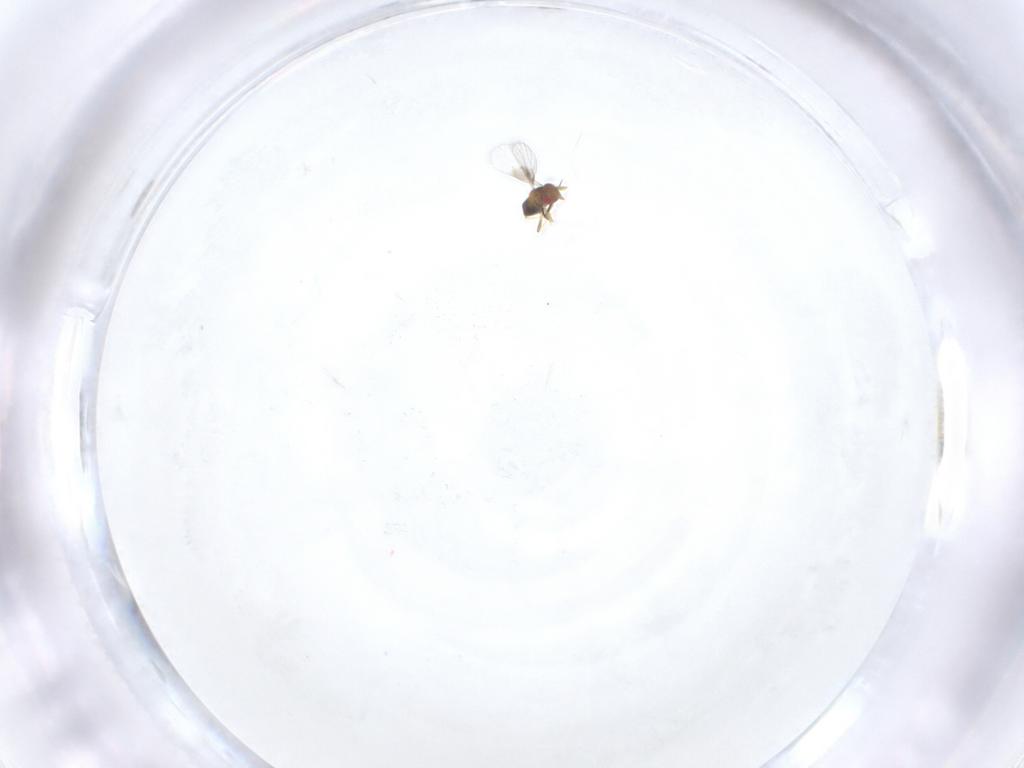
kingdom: Animalia
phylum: Arthropoda
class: Insecta
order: Hymenoptera
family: Trichogrammatidae
